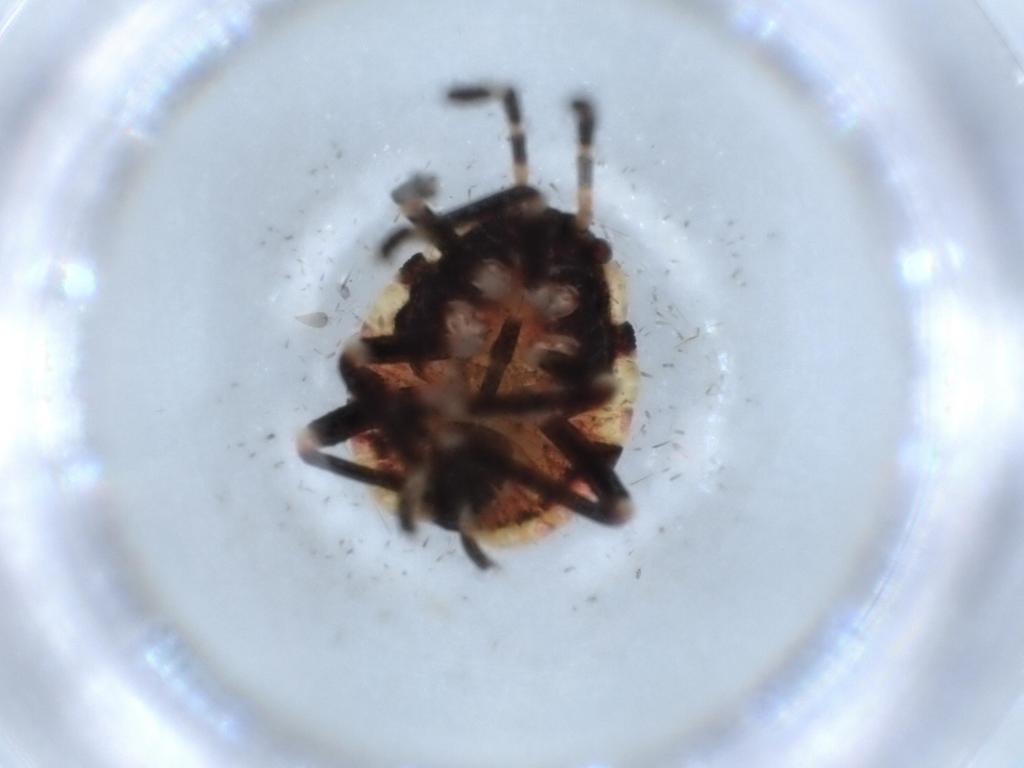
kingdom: Animalia
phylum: Arthropoda
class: Insecta
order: Hemiptera
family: Pentatomidae
